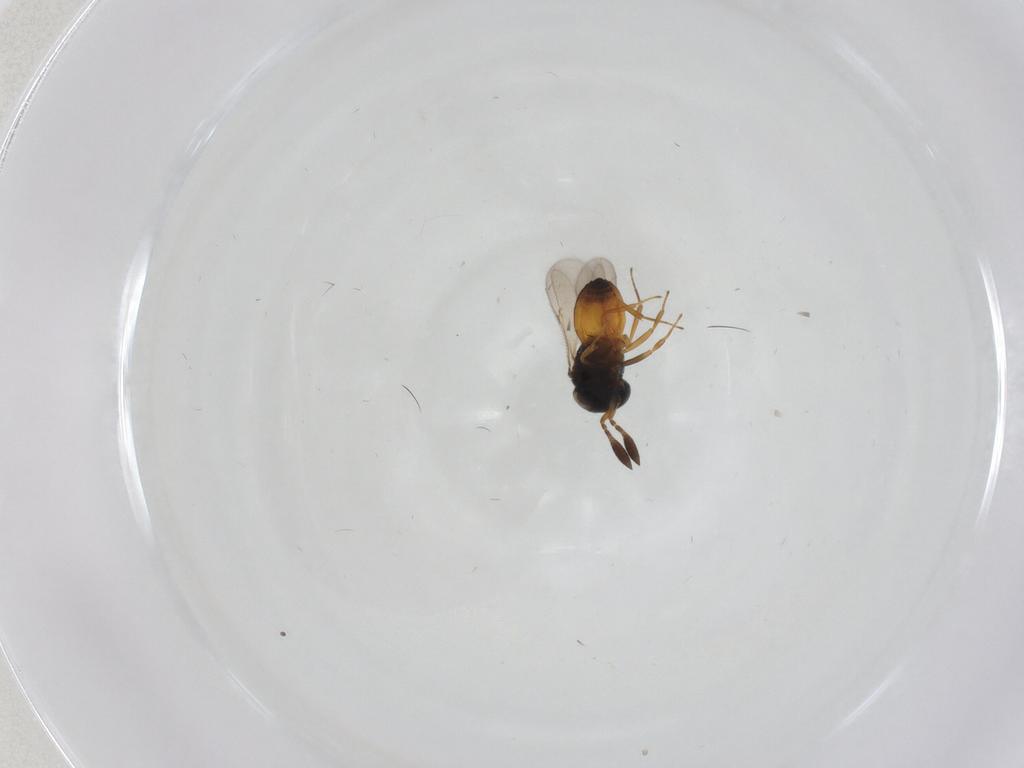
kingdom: Animalia
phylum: Arthropoda
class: Insecta
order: Hymenoptera
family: Scelionidae
